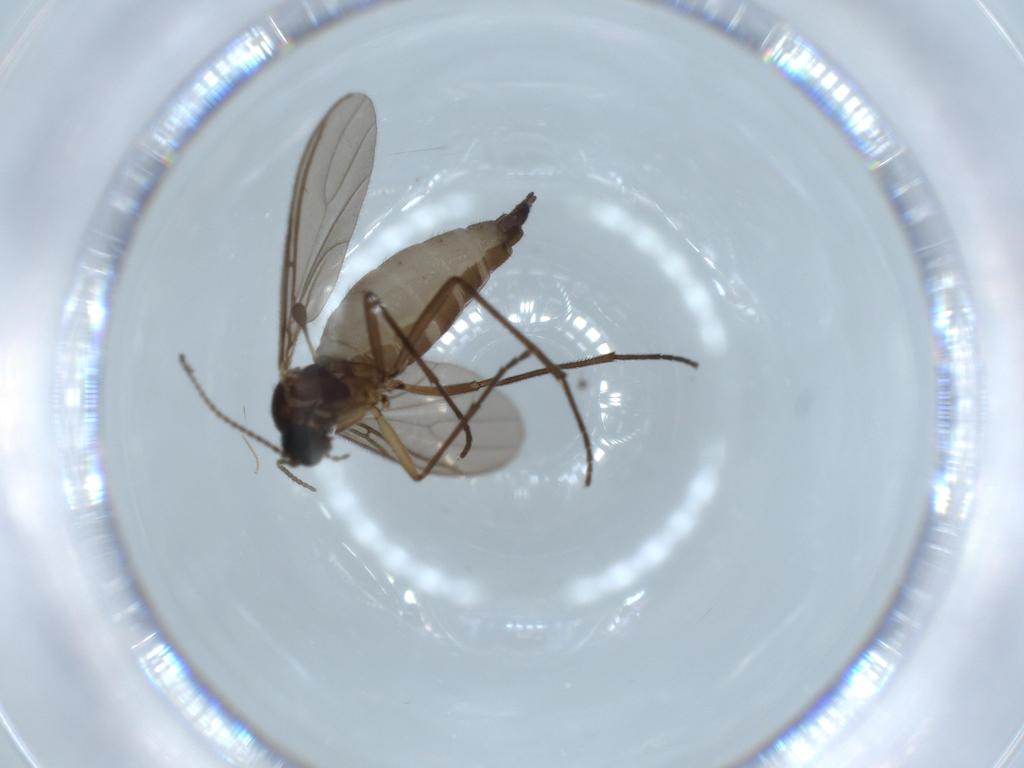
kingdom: Animalia
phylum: Arthropoda
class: Insecta
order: Diptera
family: Sciaridae
